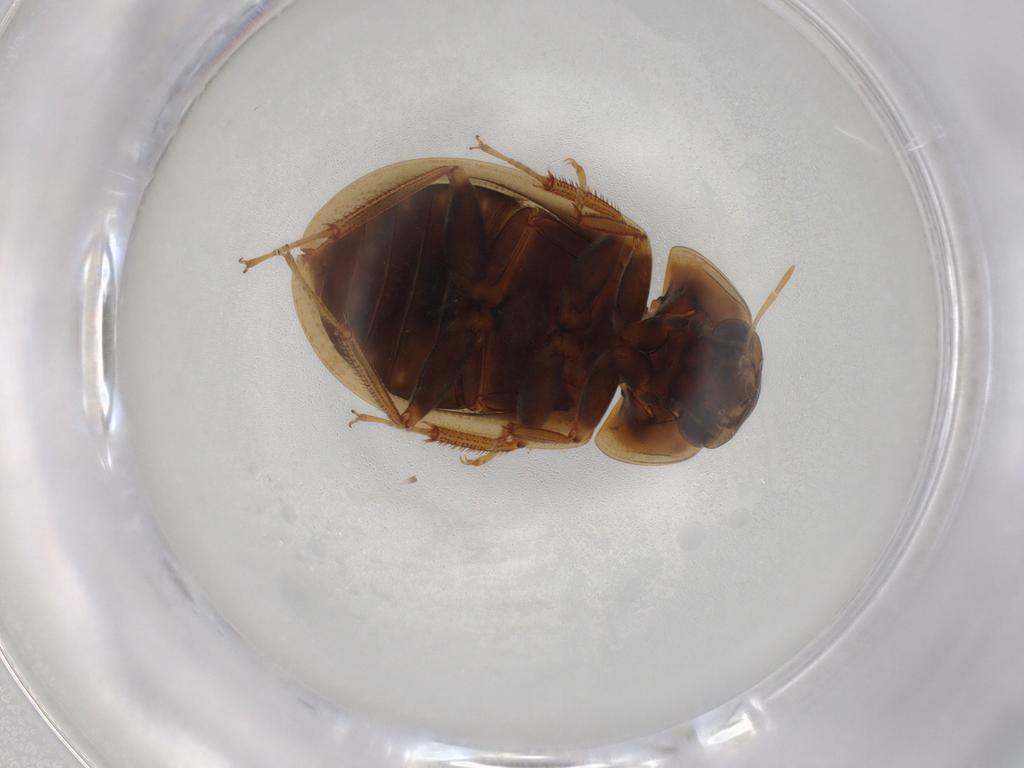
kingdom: Animalia
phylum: Arthropoda
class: Insecta
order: Coleoptera
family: Hydrophilidae
